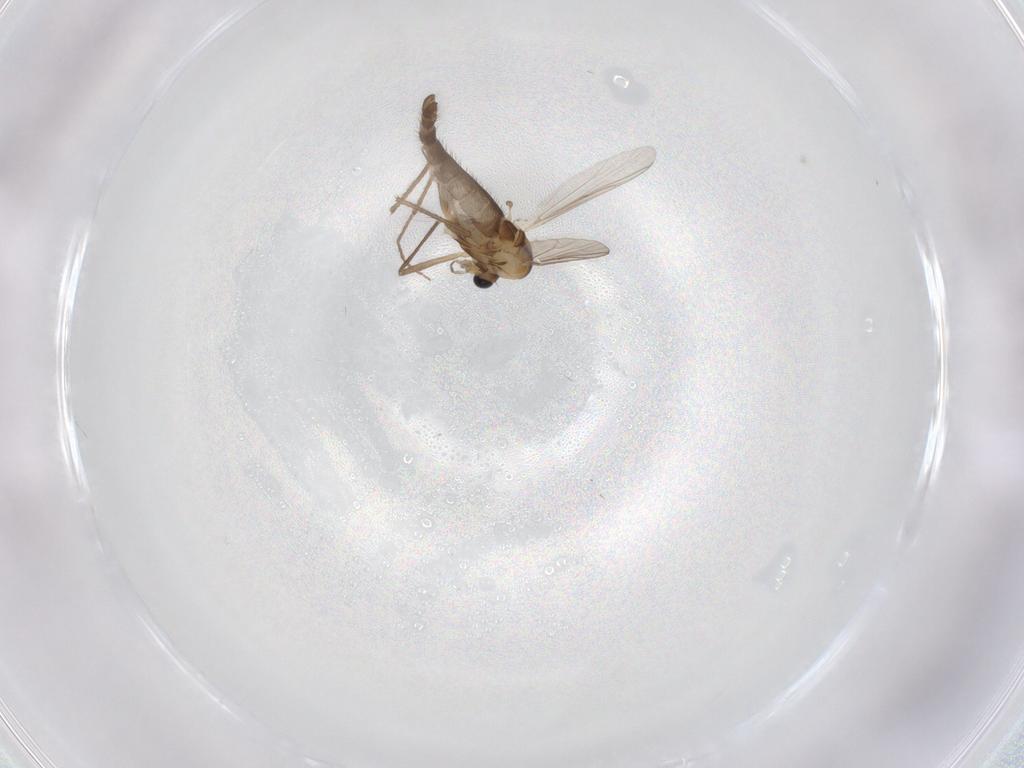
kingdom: Animalia
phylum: Arthropoda
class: Insecta
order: Diptera
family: Chironomidae
